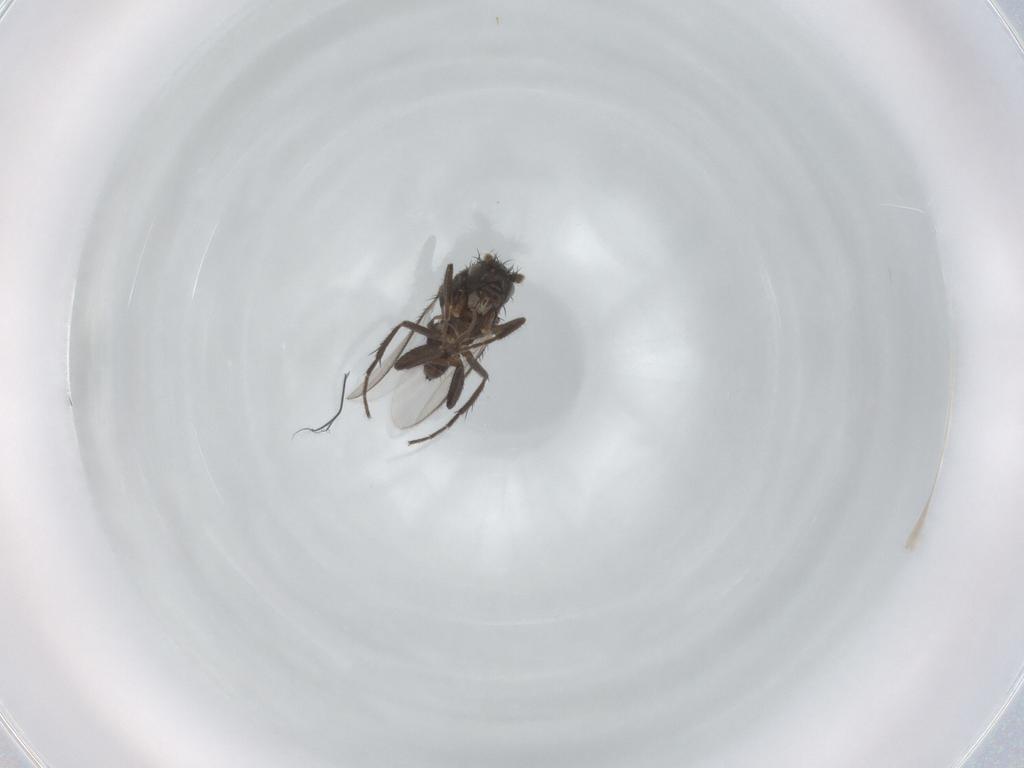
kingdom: Animalia
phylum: Arthropoda
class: Insecta
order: Diptera
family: Sphaeroceridae
